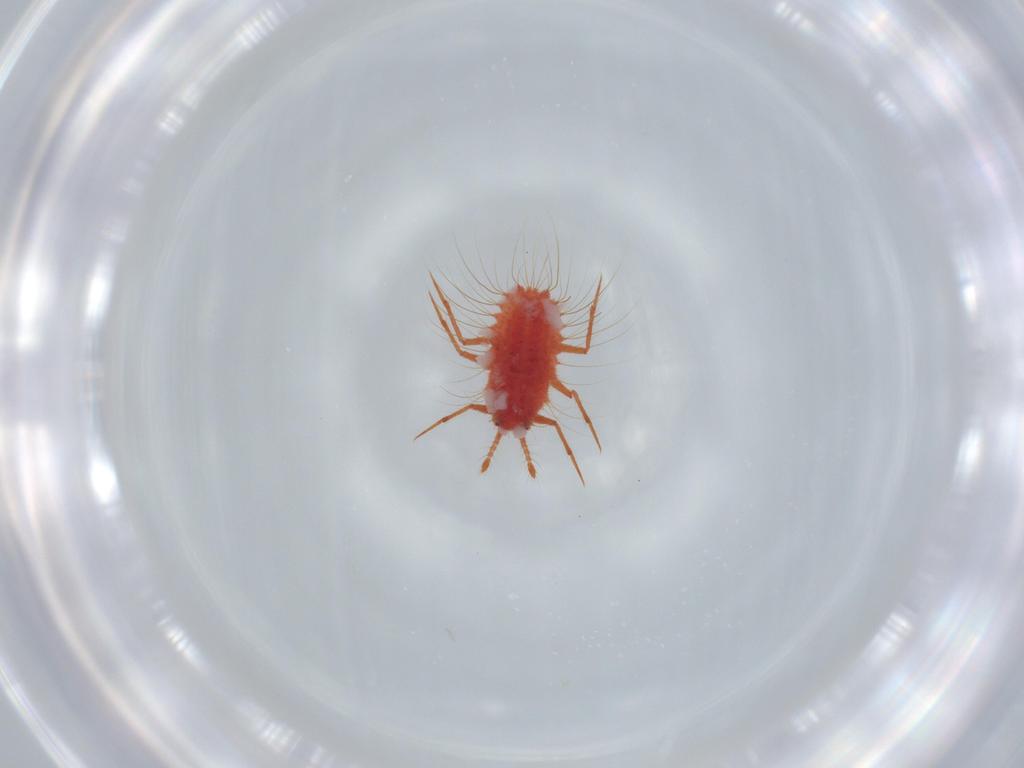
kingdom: Animalia
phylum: Arthropoda
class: Insecta
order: Hemiptera
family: Monophlebidae
